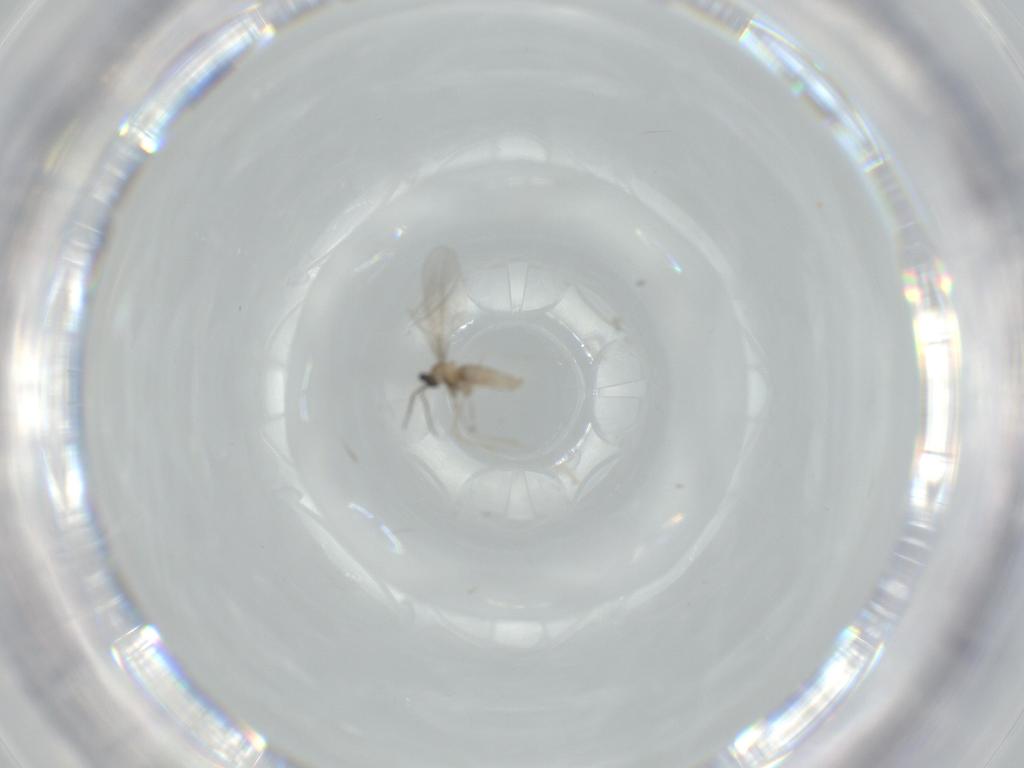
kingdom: Animalia
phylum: Arthropoda
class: Insecta
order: Diptera
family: Cecidomyiidae
